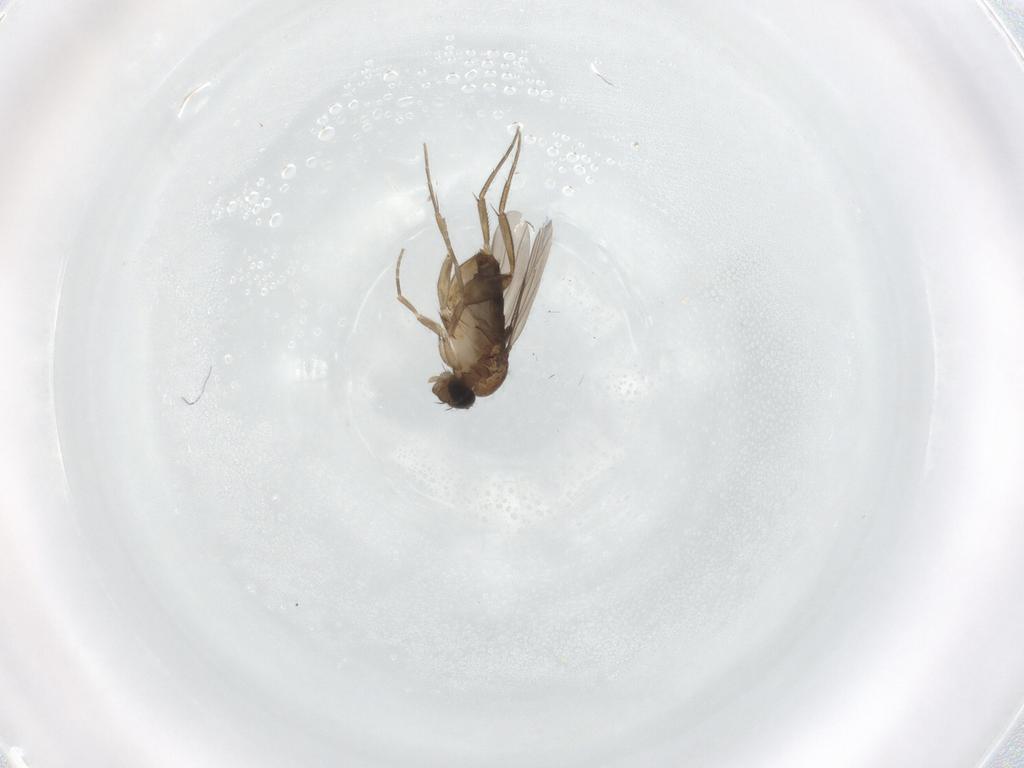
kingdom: Animalia
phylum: Arthropoda
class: Insecta
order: Diptera
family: Phoridae
